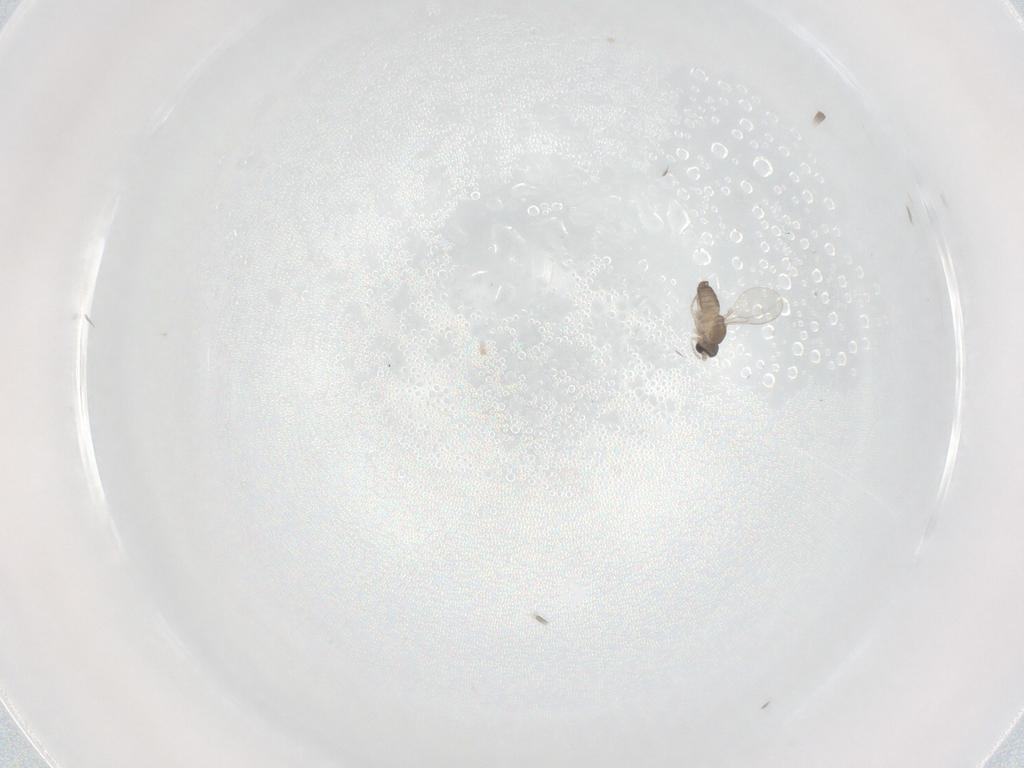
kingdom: Animalia
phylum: Arthropoda
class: Insecta
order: Diptera
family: Cecidomyiidae
